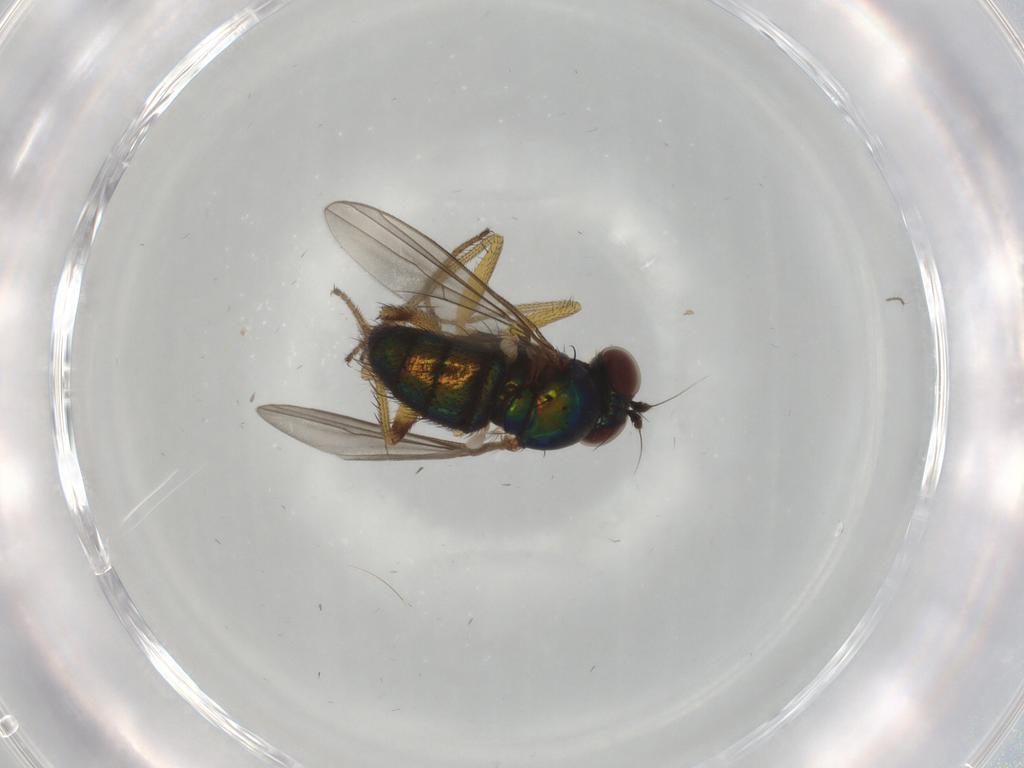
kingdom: Animalia
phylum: Arthropoda
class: Insecta
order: Diptera
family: Dolichopodidae
